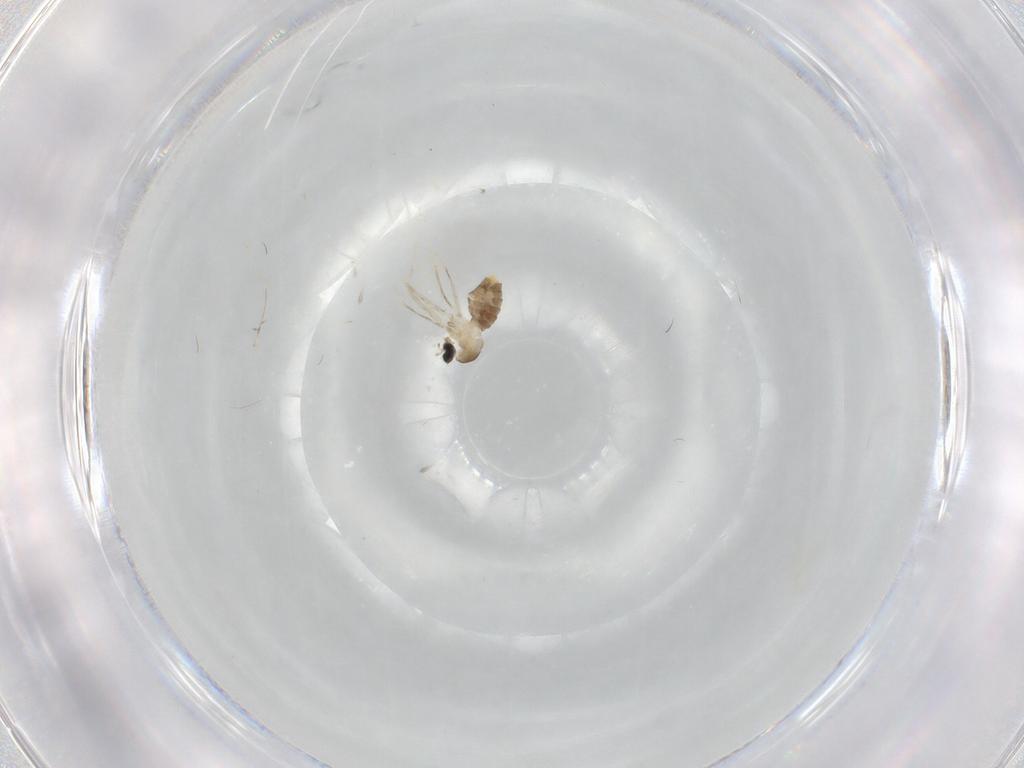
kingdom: Animalia
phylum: Arthropoda
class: Insecta
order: Diptera
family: Cecidomyiidae
